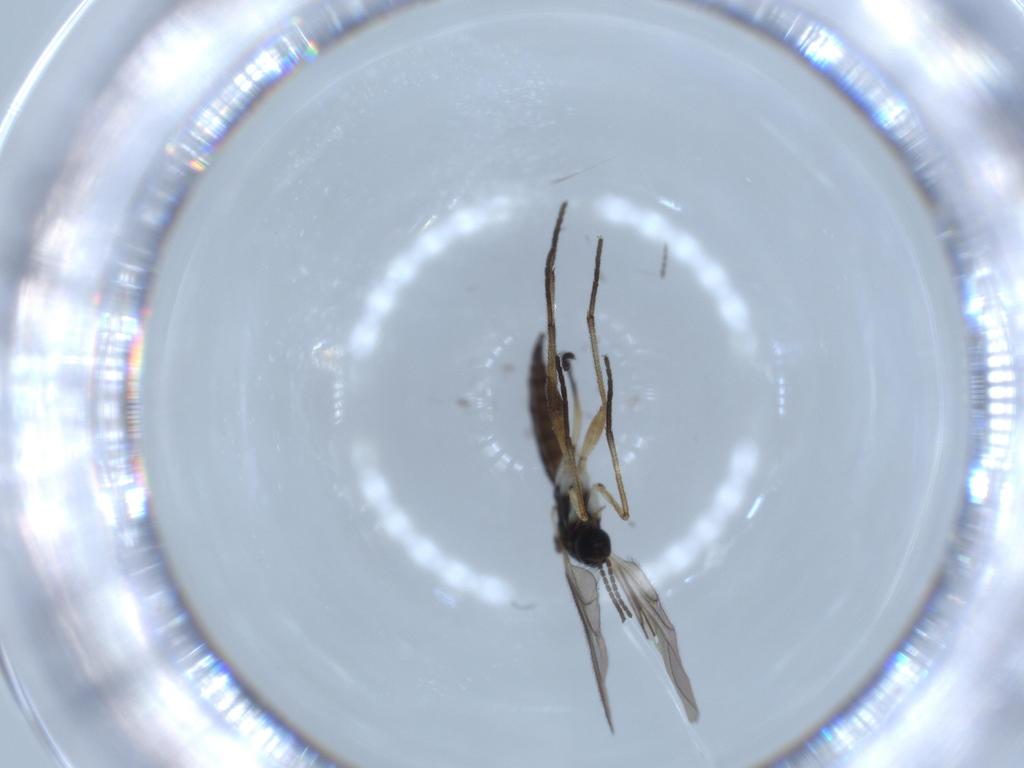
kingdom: Animalia
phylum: Arthropoda
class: Insecta
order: Diptera
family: Sciaridae
